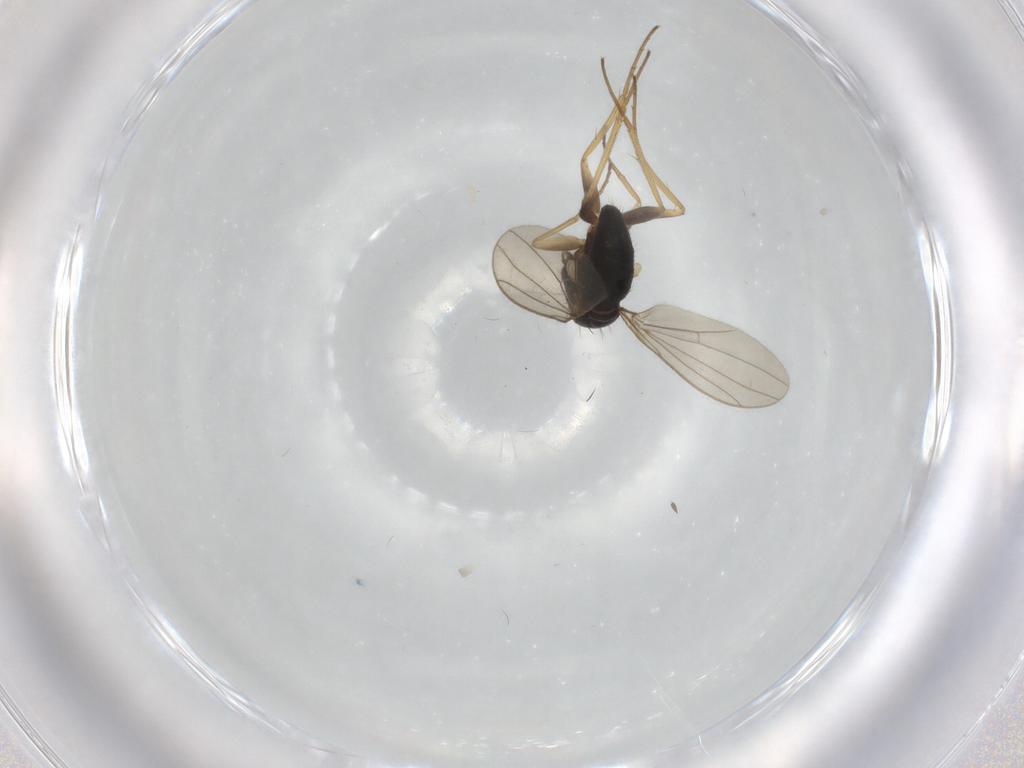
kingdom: Animalia
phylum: Arthropoda
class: Insecta
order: Diptera
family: Dolichopodidae
